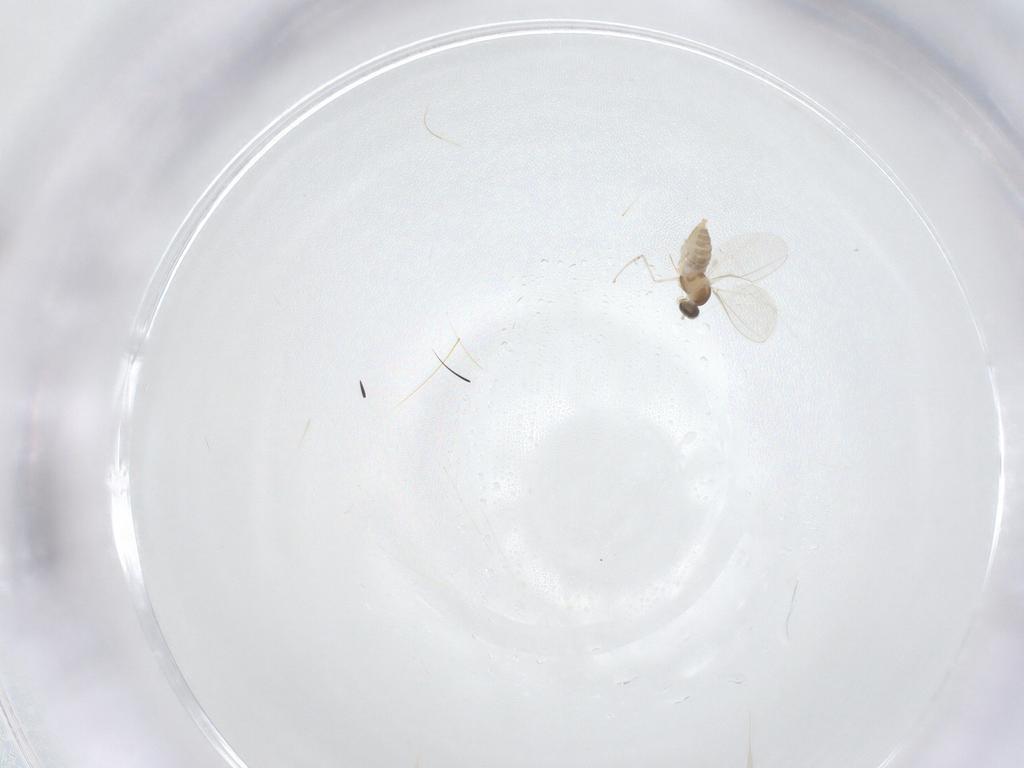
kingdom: Animalia
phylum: Arthropoda
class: Insecta
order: Diptera
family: Cecidomyiidae
